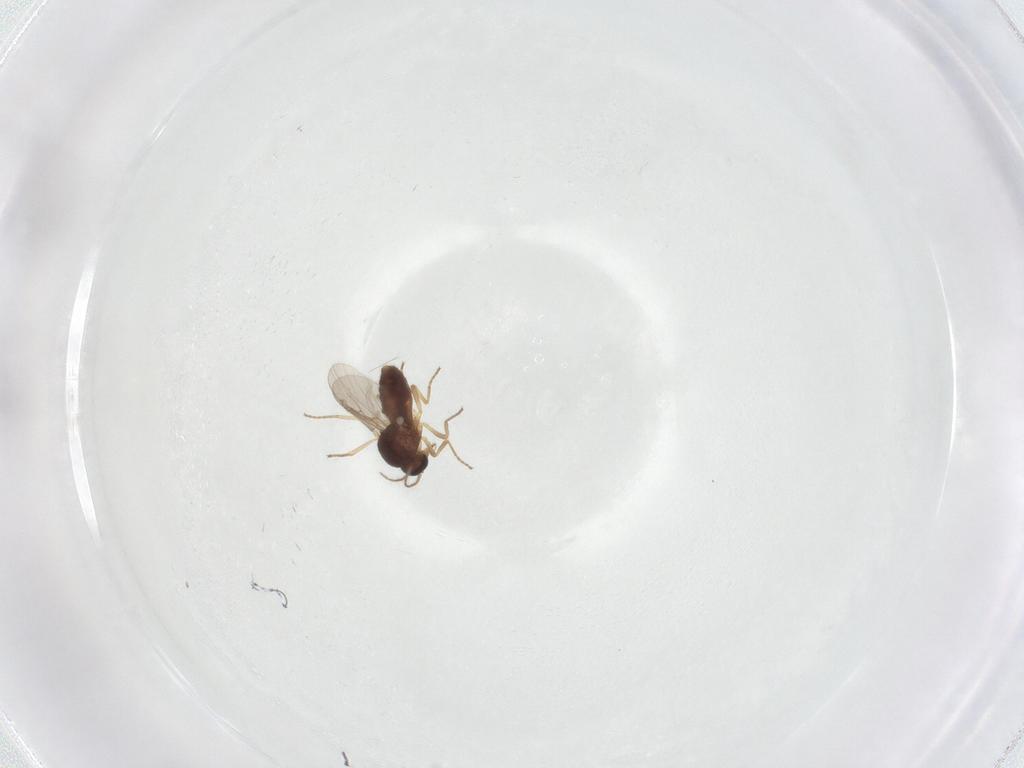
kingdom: Animalia
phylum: Arthropoda
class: Insecta
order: Diptera
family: Ceratopogonidae
